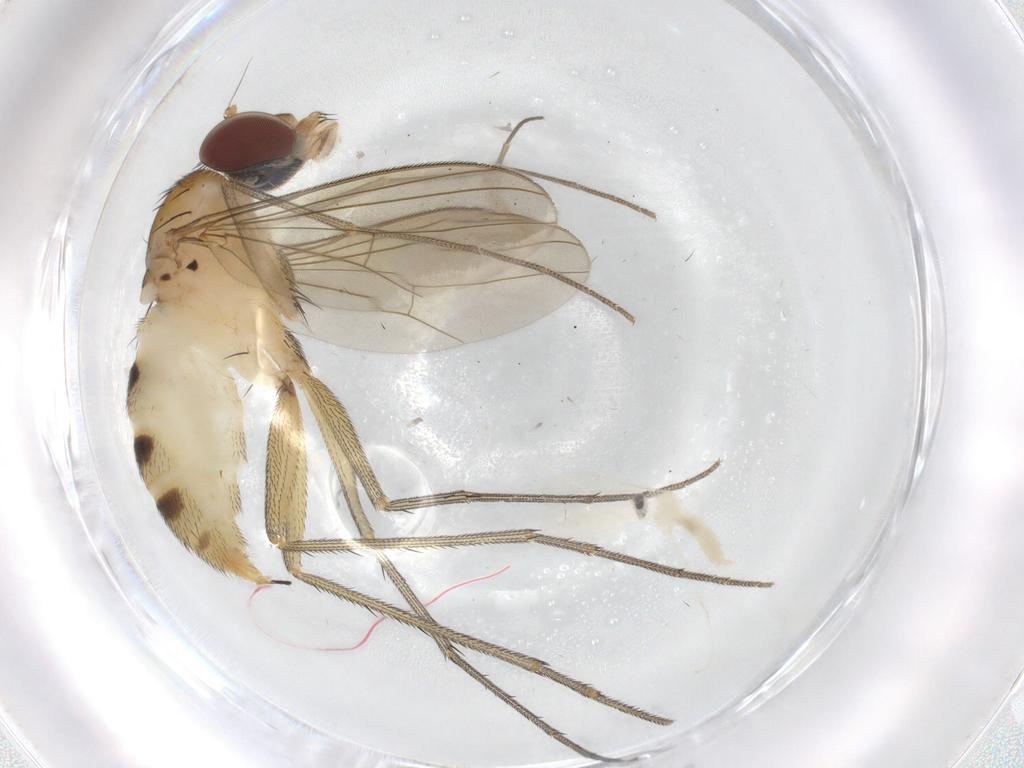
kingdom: Animalia
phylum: Arthropoda
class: Insecta
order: Diptera
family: Sciaridae
